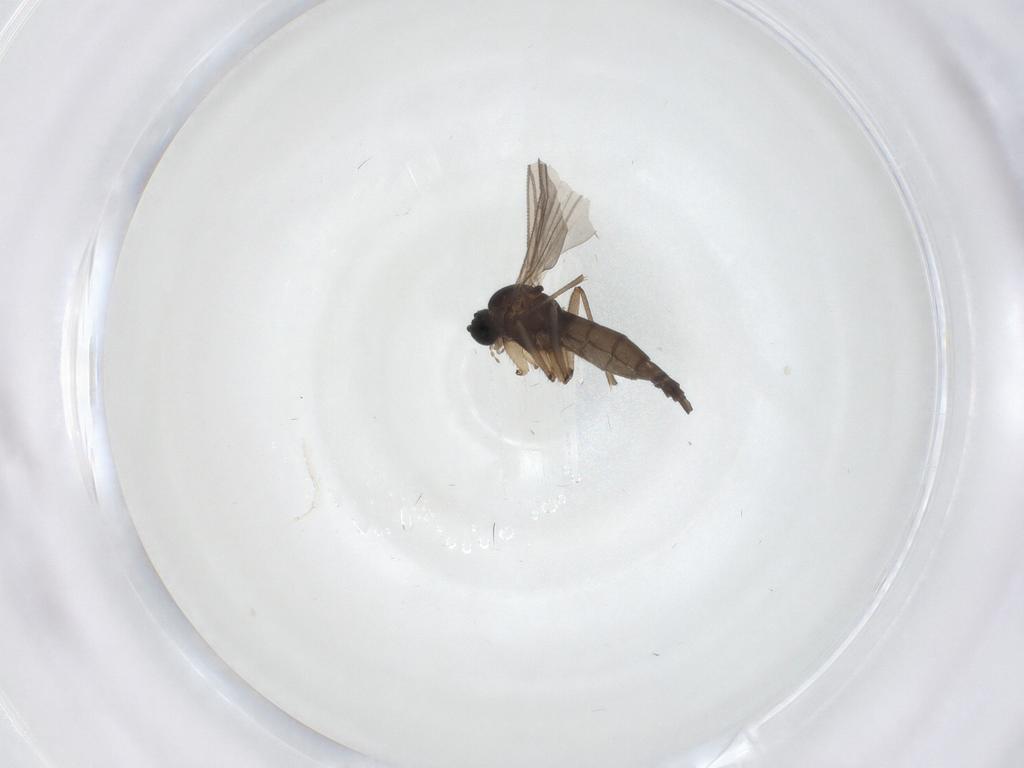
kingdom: Animalia
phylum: Arthropoda
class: Insecta
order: Diptera
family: Sciaridae
